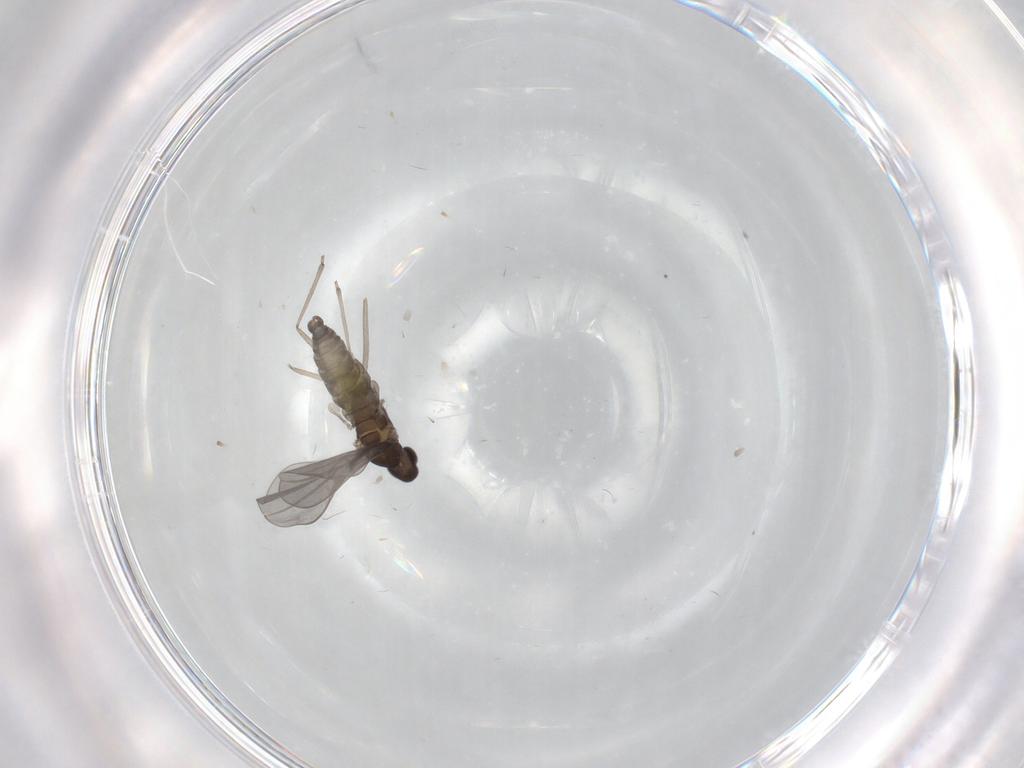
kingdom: Animalia
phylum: Arthropoda
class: Insecta
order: Diptera
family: Cecidomyiidae
